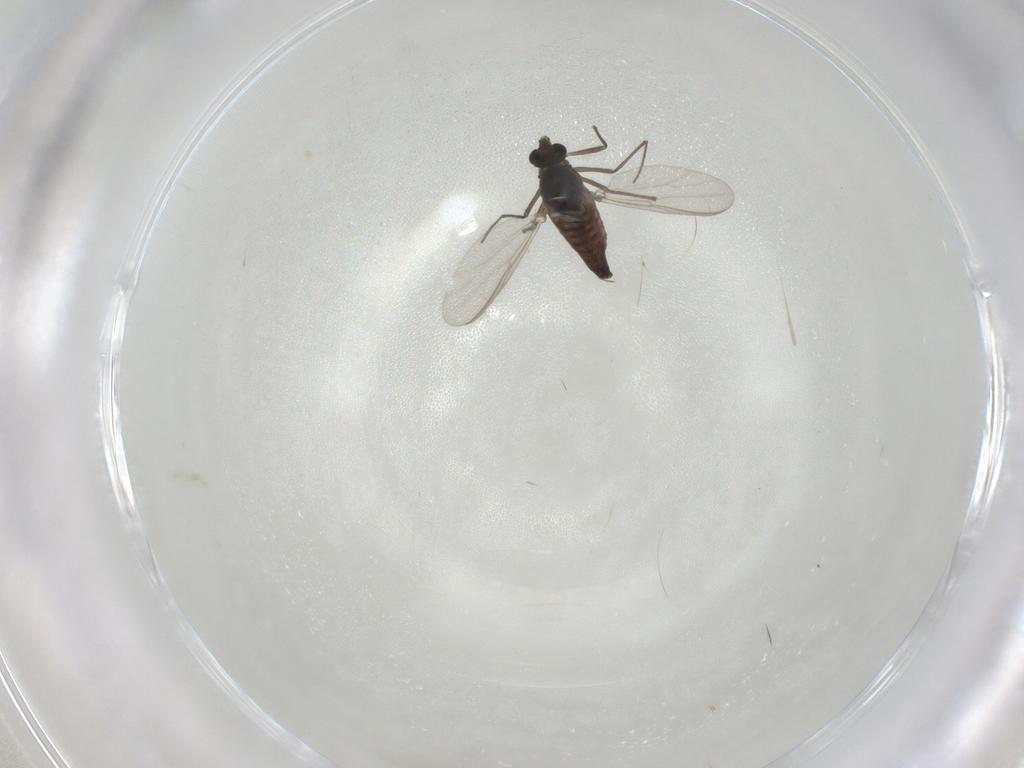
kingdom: Animalia
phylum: Arthropoda
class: Insecta
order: Diptera
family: Chironomidae
